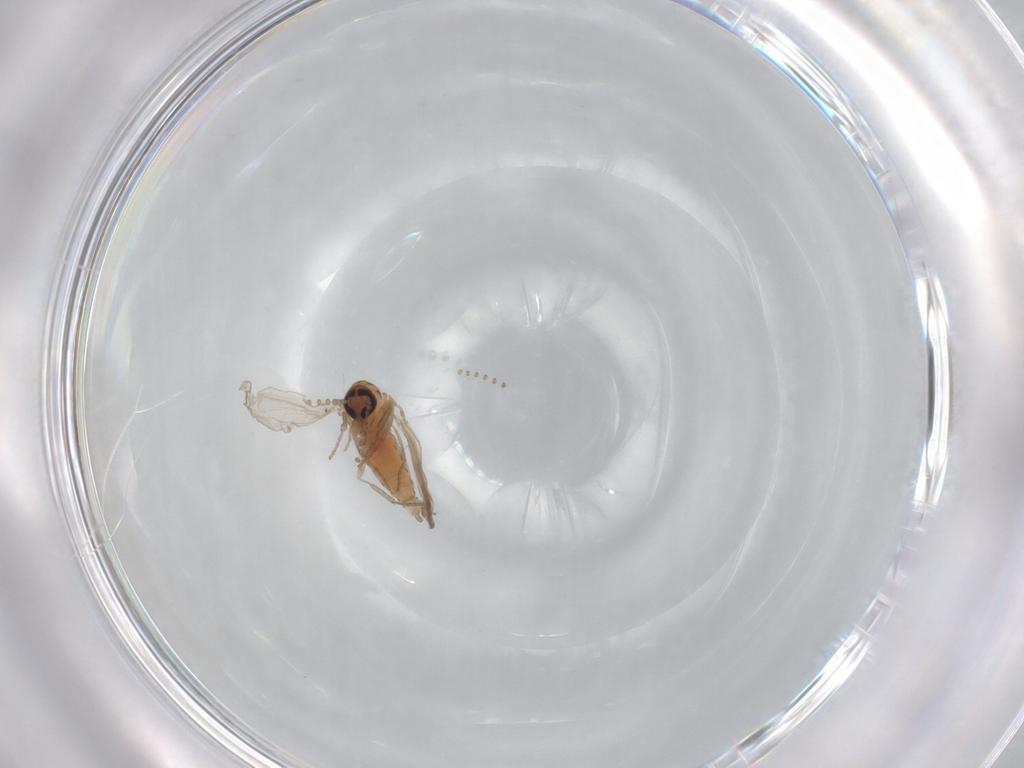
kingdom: Animalia
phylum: Arthropoda
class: Insecta
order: Diptera
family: Psychodidae
